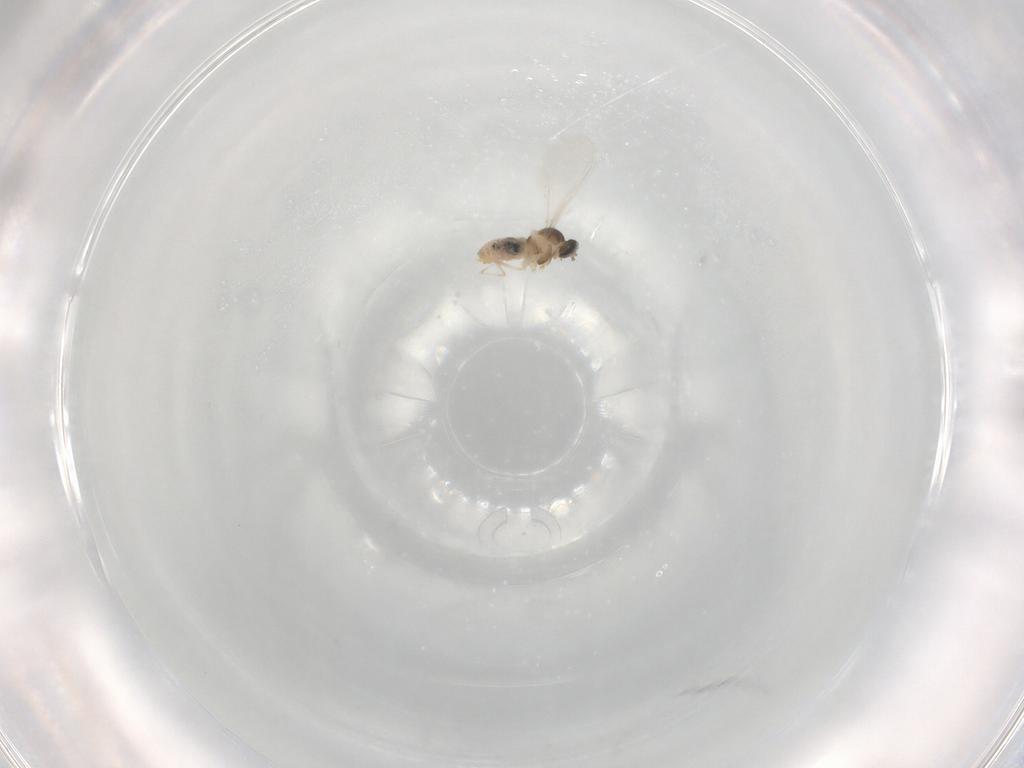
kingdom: Animalia
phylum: Arthropoda
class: Insecta
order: Diptera
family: Cecidomyiidae
